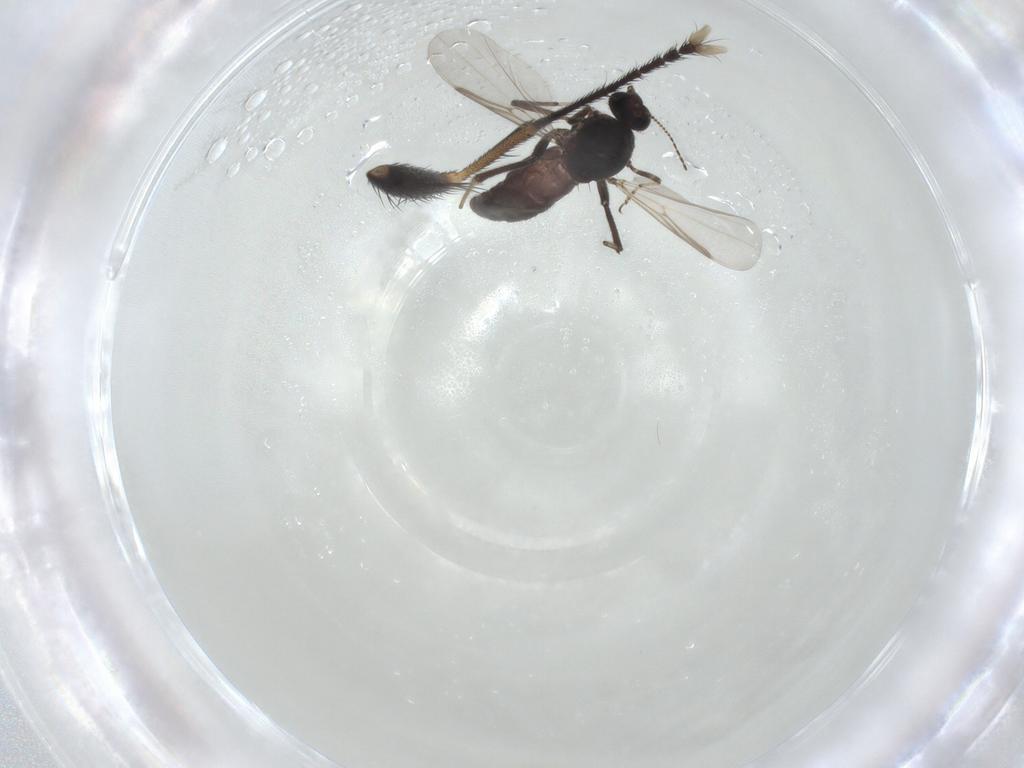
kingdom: Animalia
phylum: Arthropoda
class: Insecta
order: Diptera
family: Ceratopogonidae
